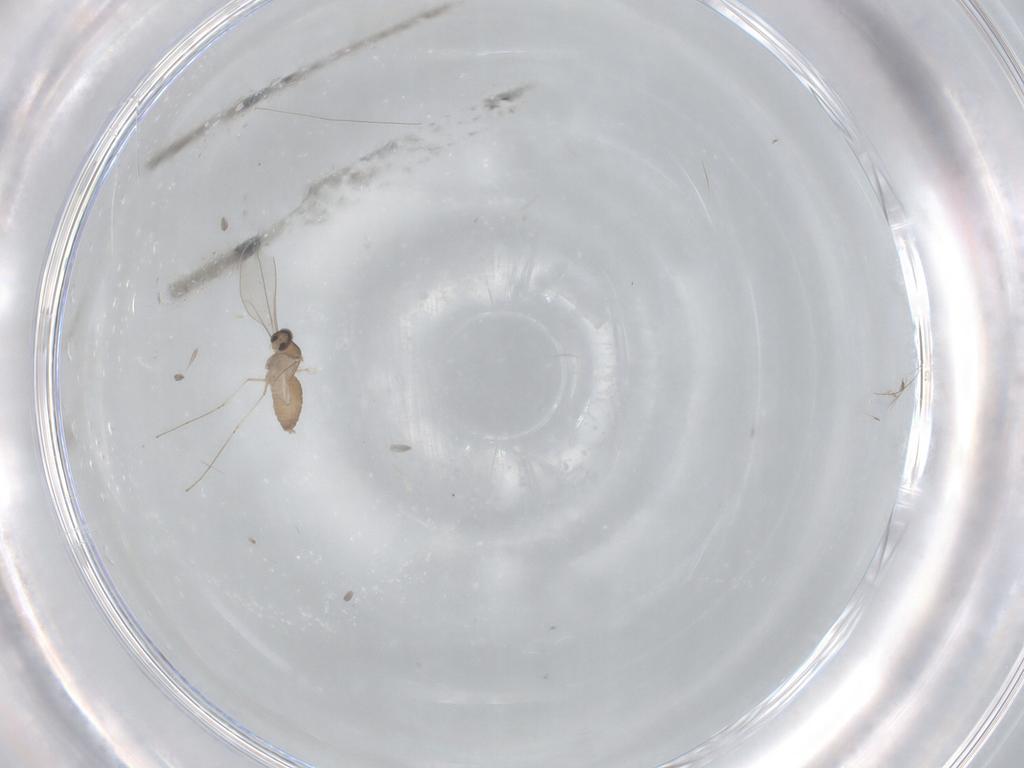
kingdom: Animalia
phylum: Arthropoda
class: Insecta
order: Diptera
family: Cecidomyiidae
